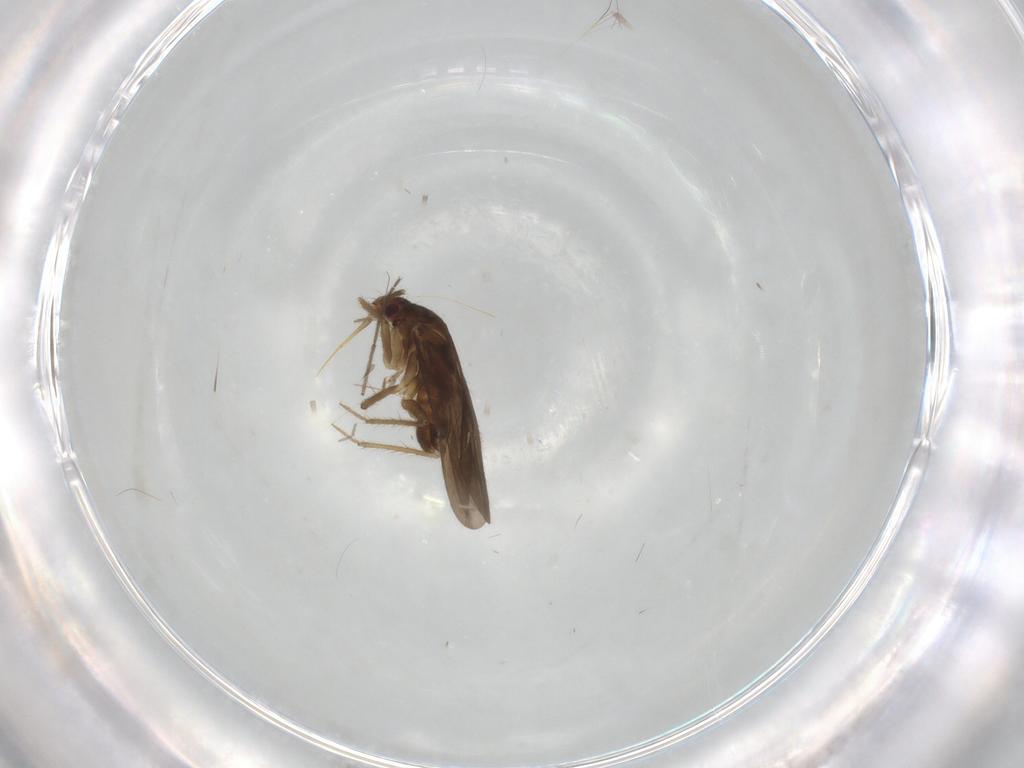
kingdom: Animalia
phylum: Arthropoda
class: Insecta
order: Hemiptera
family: Ceratocombidae
